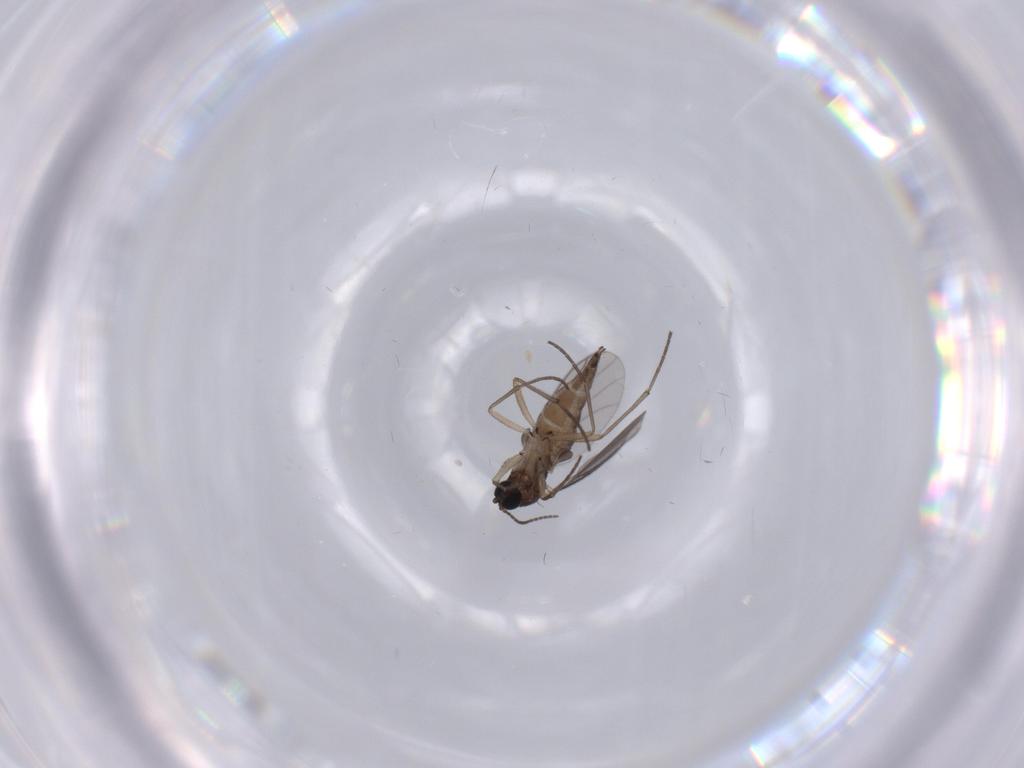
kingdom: Animalia
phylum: Arthropoda
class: Insecta
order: Diptera
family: Sciaridae
